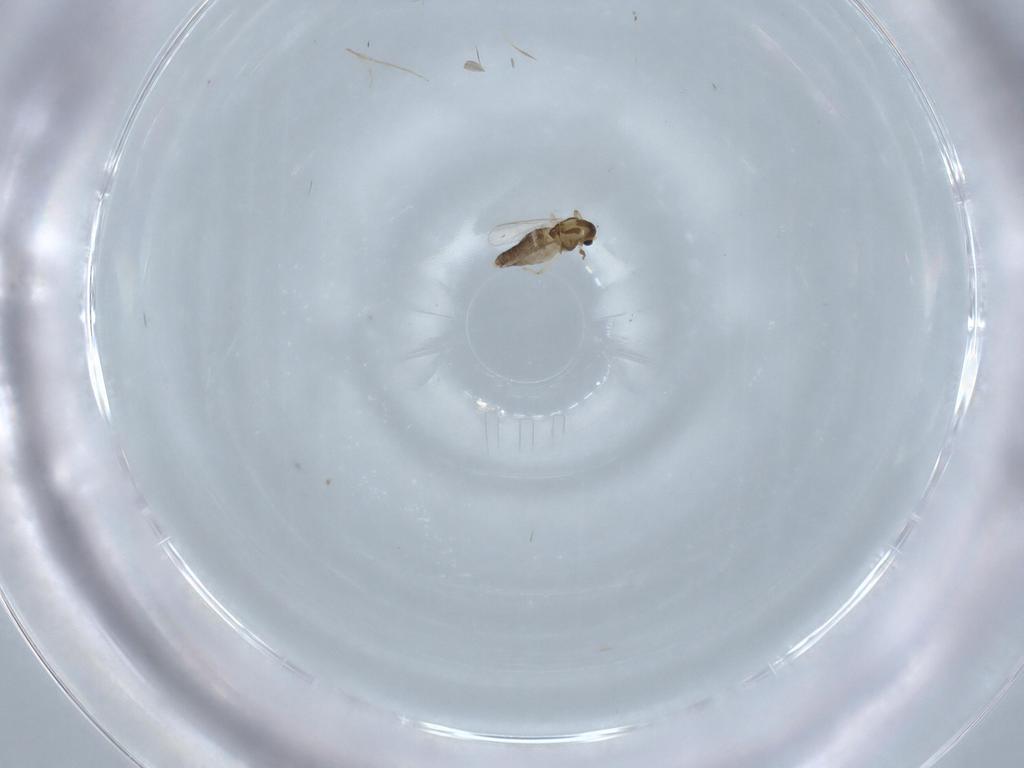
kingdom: Animalia
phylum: Arthropoda
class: Insecta
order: Diptera
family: Chironomidae
